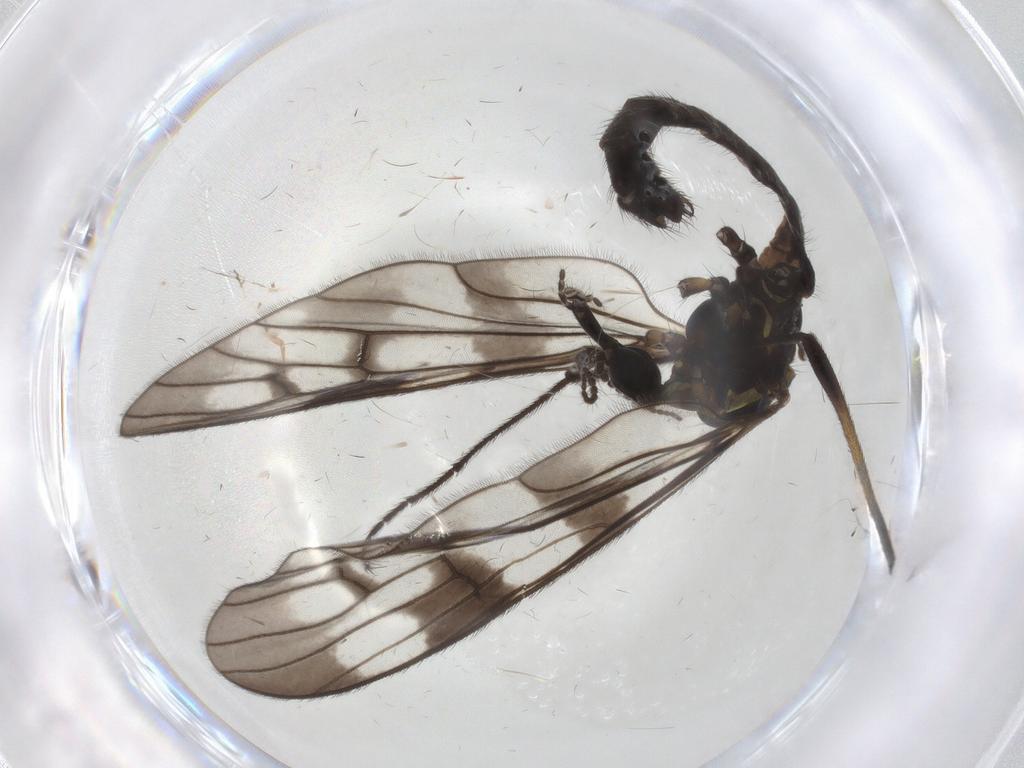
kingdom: Animalia
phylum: Arthropoda
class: Insecta
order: Diptera
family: Limoniidae
